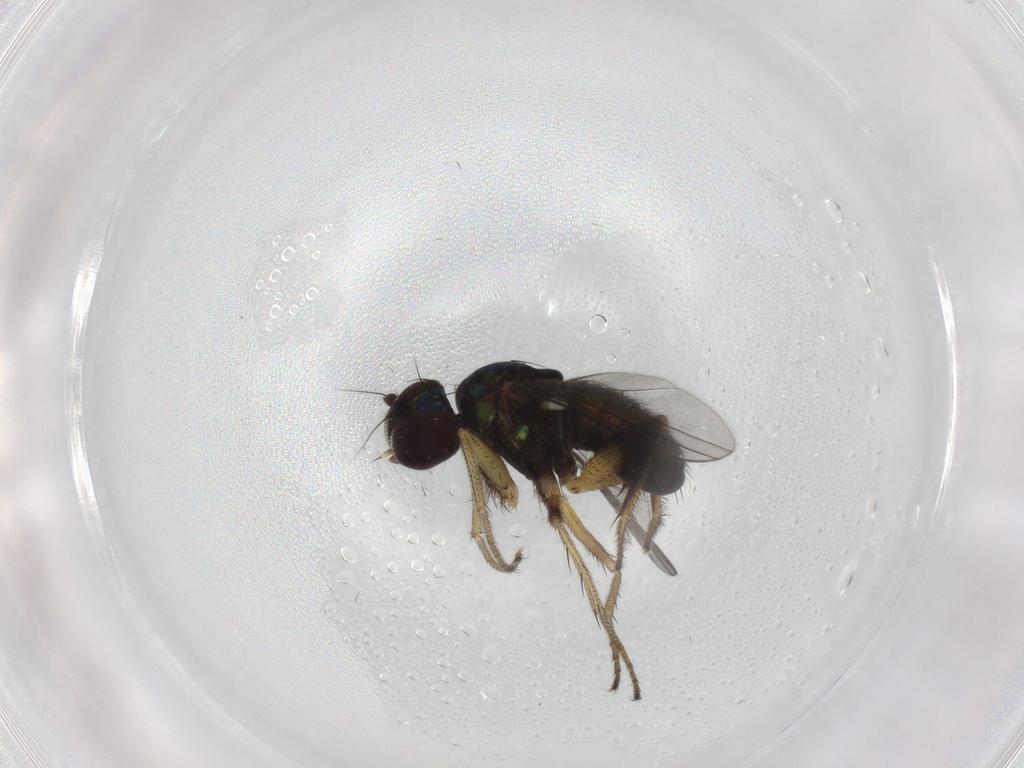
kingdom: Animalia
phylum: Arthropoda
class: Insecta
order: Diptera
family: Dolichopodidae
